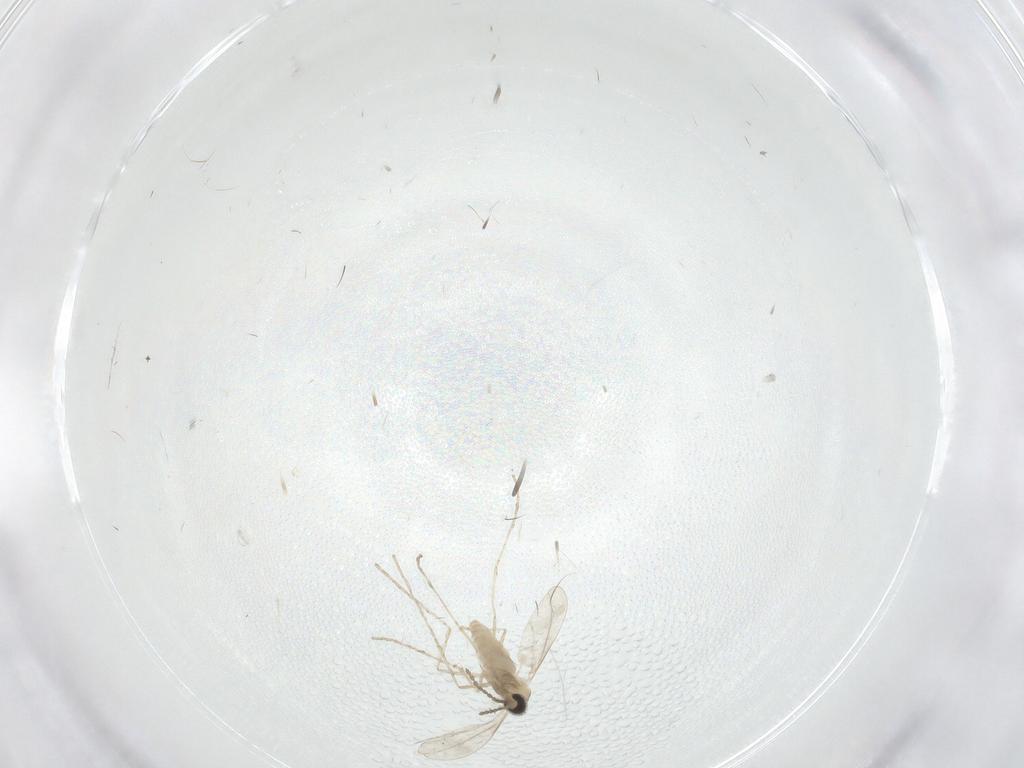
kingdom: Animalia
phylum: Arthropoda
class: Insecta
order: Diptera
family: Cecidomyiidae
